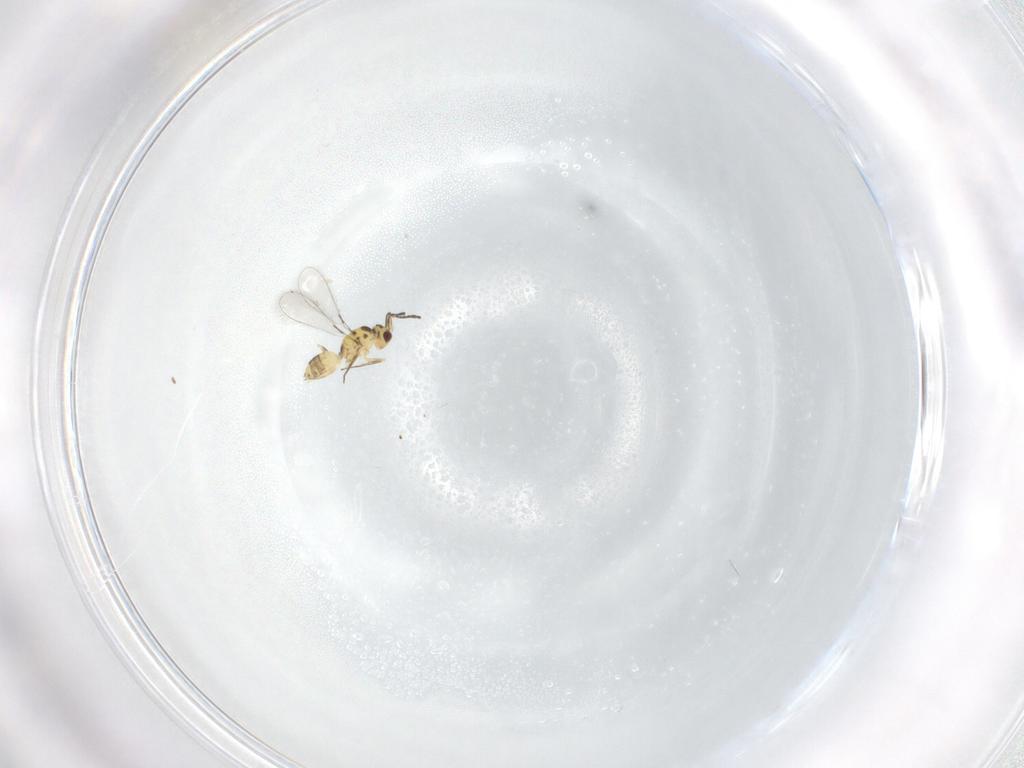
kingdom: Animalia
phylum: Arthropoda
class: Insecta
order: Hymenoptera
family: Mymaridae
